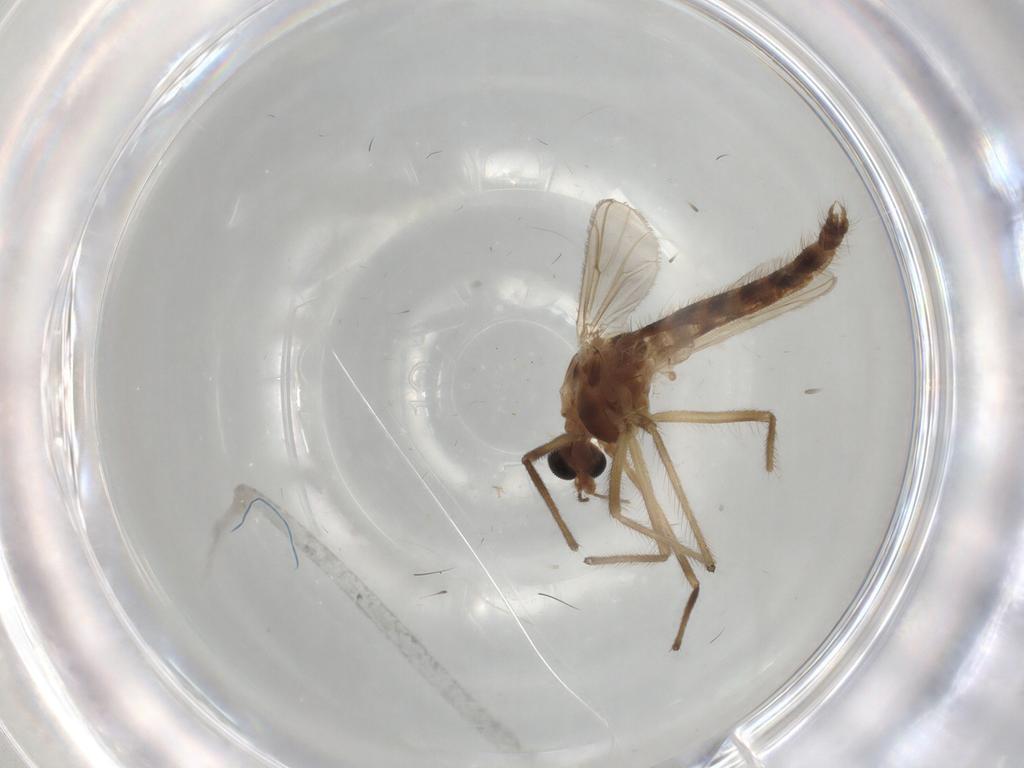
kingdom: Animalia
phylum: Arthropoda
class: Insecta
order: Diptera
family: Chironomidae
